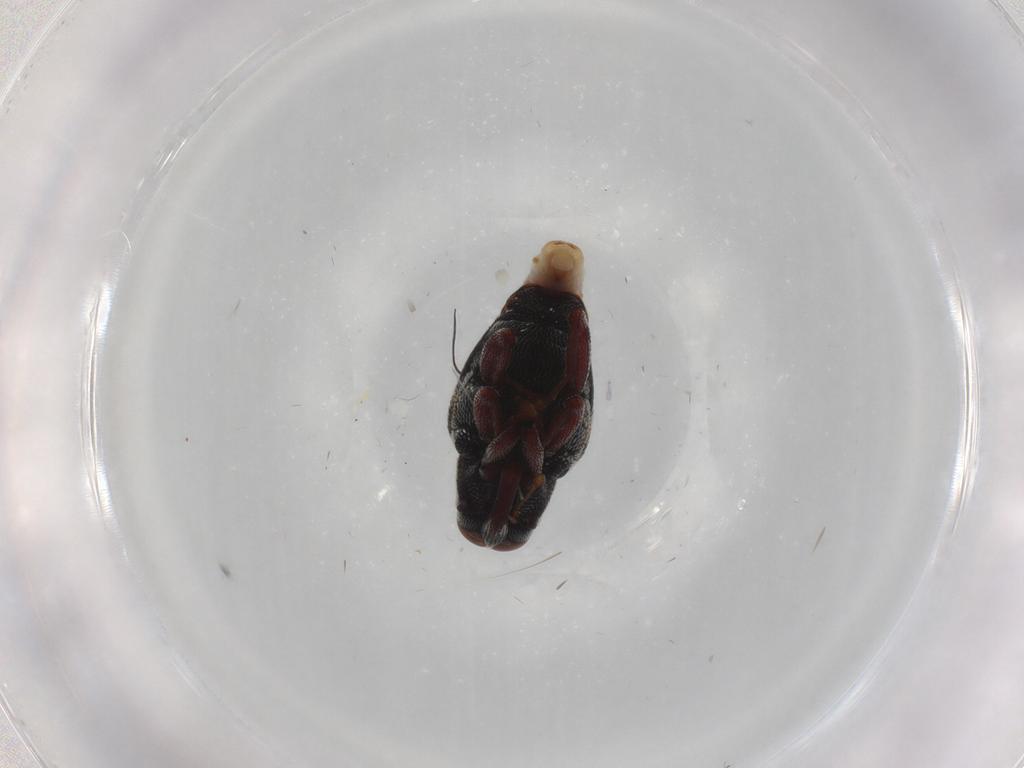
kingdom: Animalia
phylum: Arthropoda
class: Insecta
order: Coleoptera
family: Curculionidae
